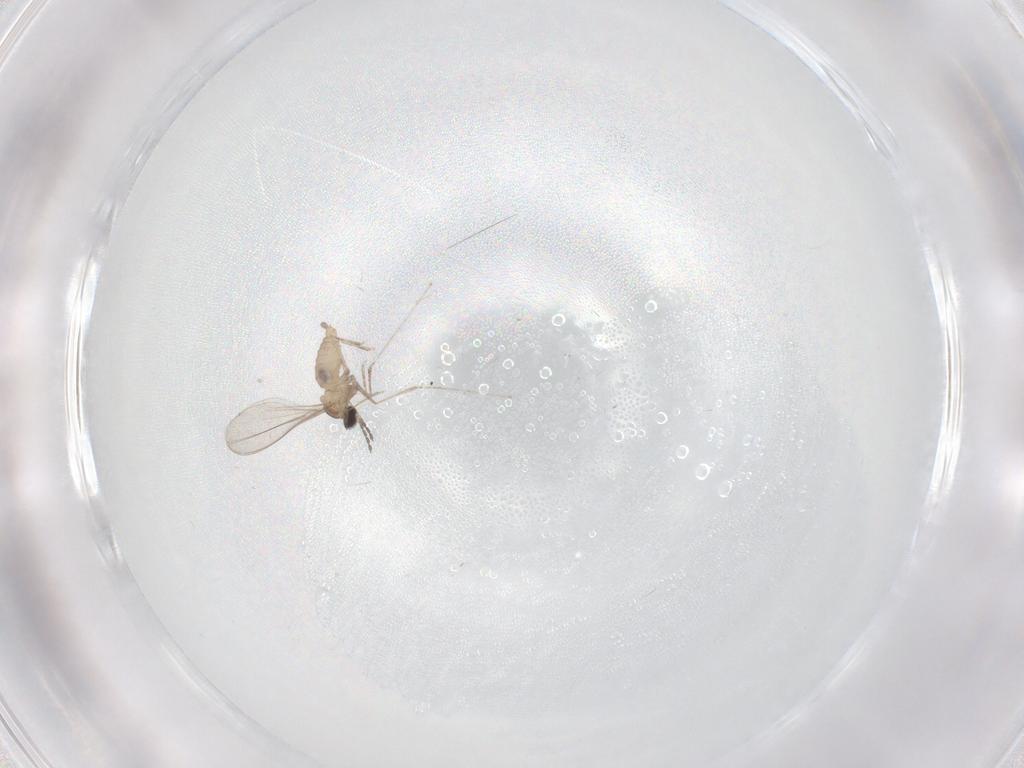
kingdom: Animalia
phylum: Arthropoda
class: Insecta
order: Diptera
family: Cecidomyiidae
